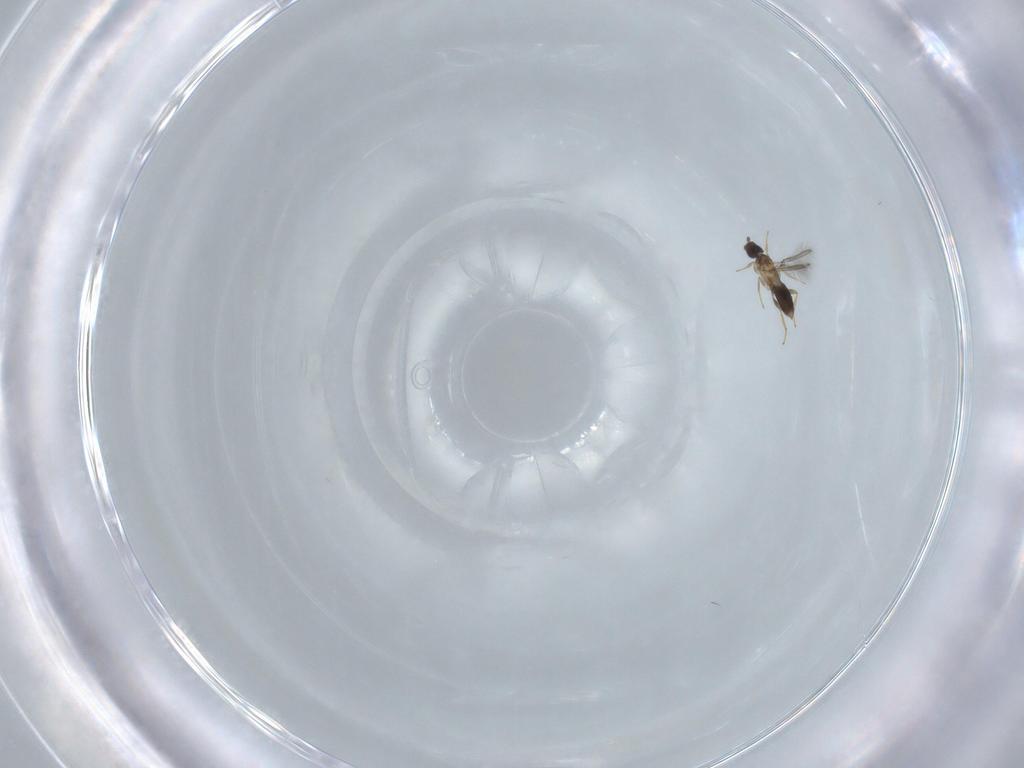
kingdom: Animalia
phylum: Arthropoda
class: Insecta
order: Hymenoptera
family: Mymaridae
